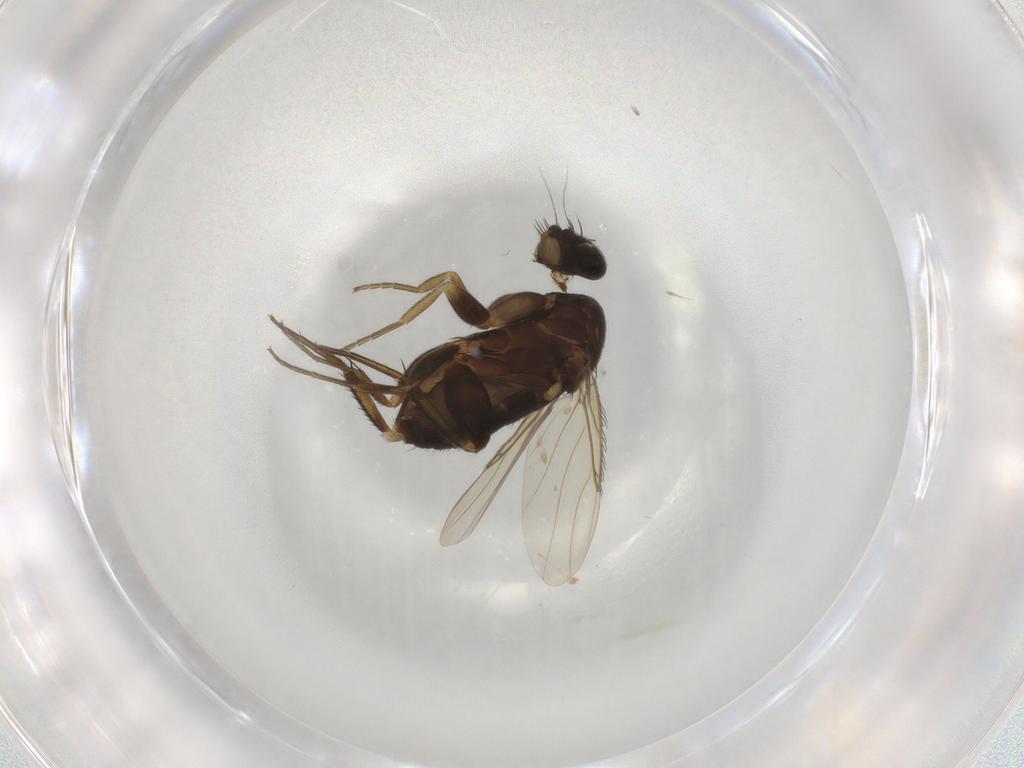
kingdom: Animalia
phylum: Arthropoda
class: Insecta
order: Diptera
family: Phoridae
